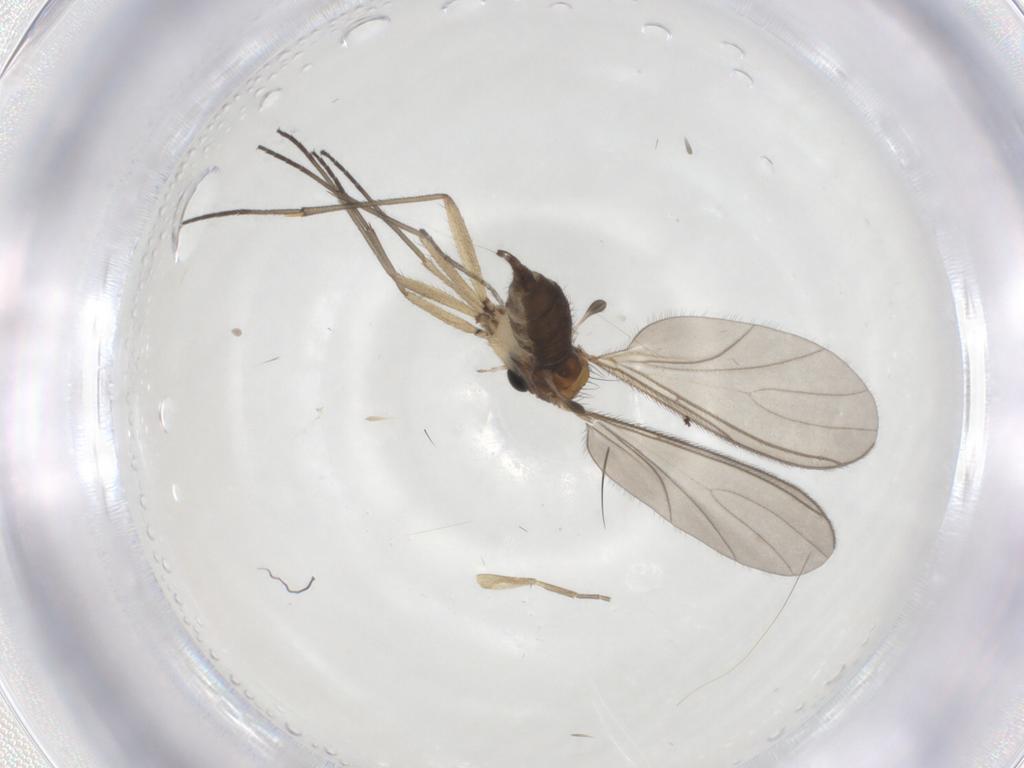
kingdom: Animalia
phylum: Arthropoda
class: Insecta
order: Diptera
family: Sciaridae
